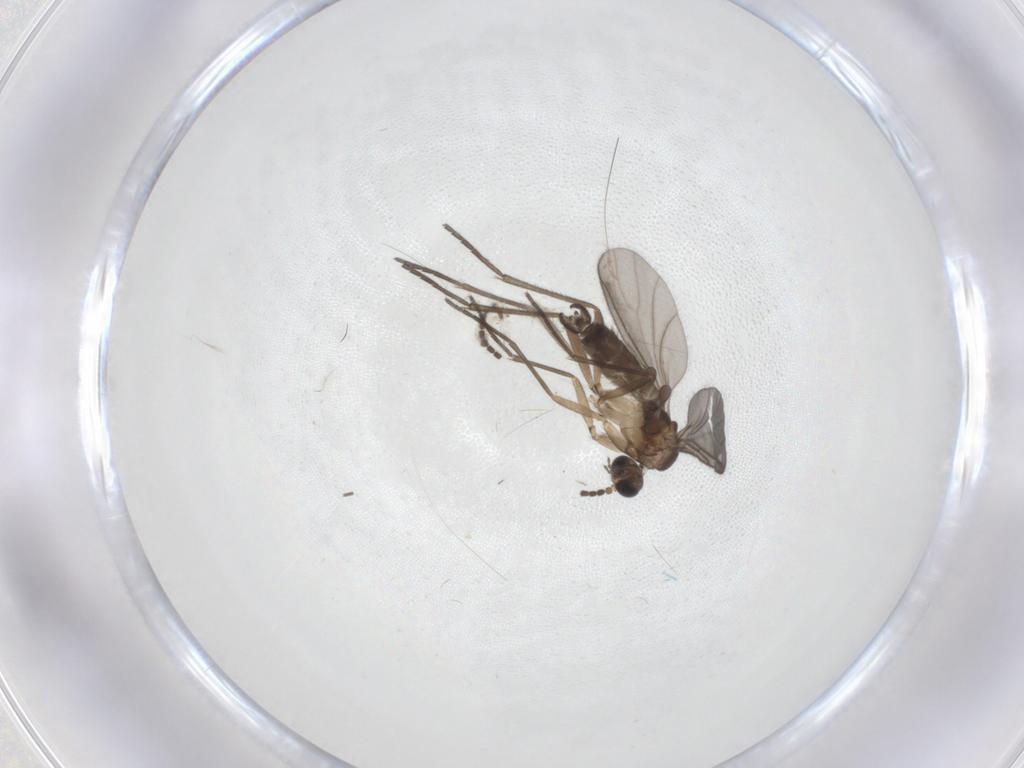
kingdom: Animalia
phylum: Arthropoda
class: Insecta
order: Diptera
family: Sciaridae
